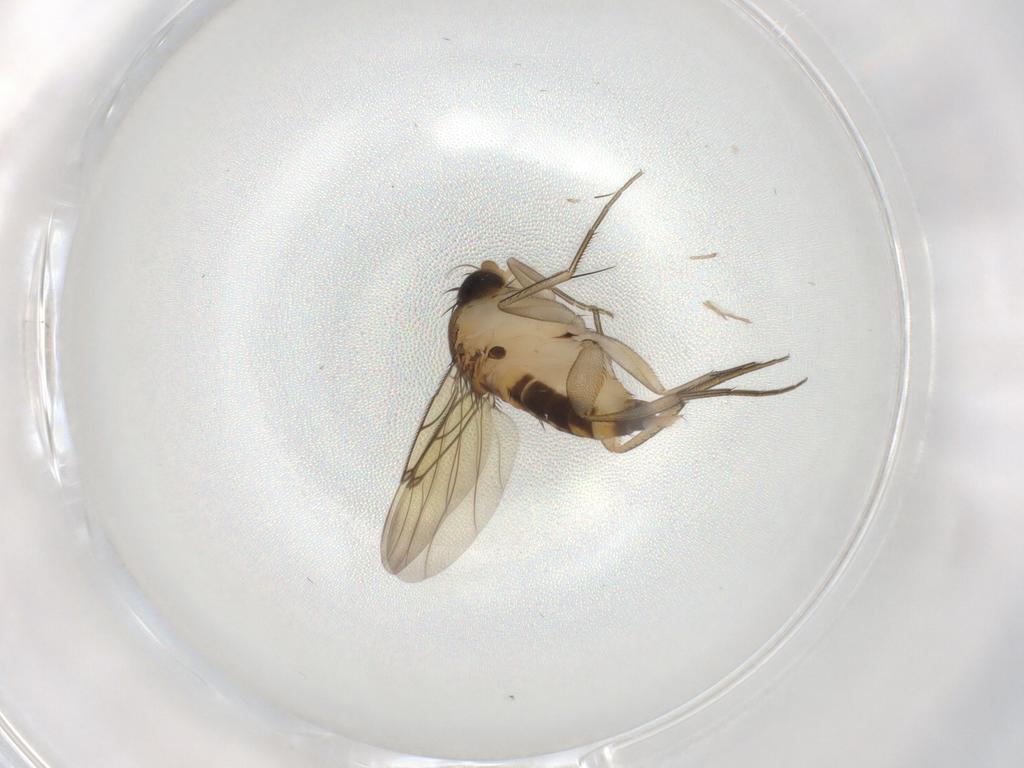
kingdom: Animalia
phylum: Arthropoda
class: Insecta
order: Diptera
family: Cecidomyiidae
